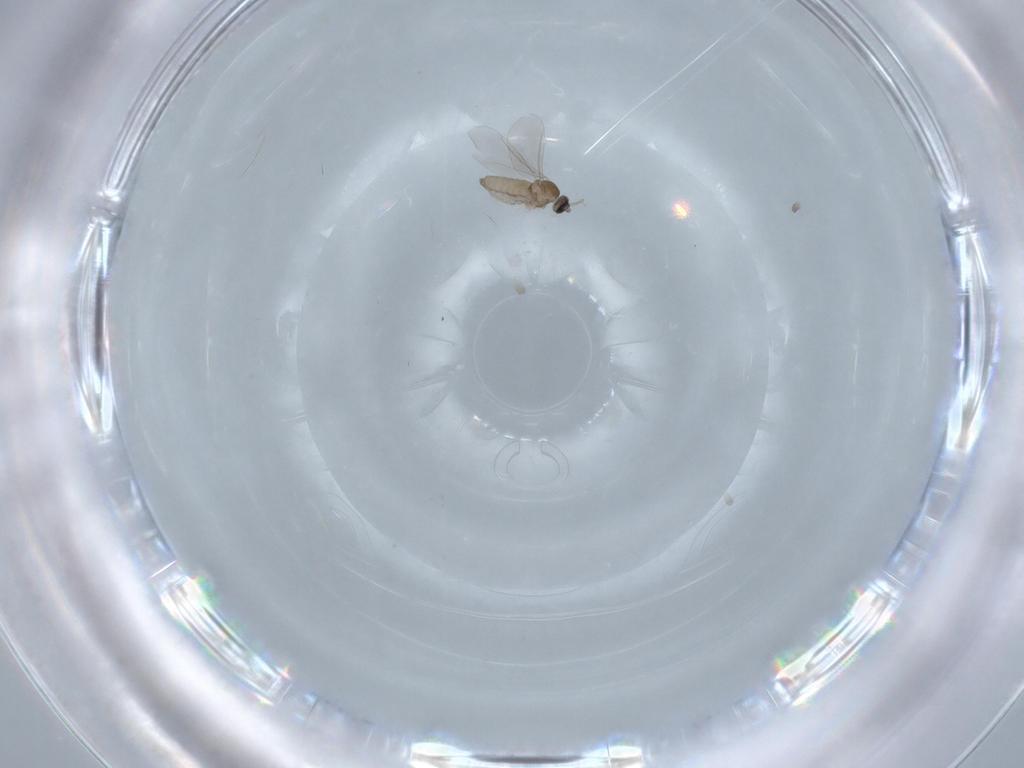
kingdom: Animalia
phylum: Arthropoda
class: Insecta
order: Diptera
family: Cecidomyiidae
